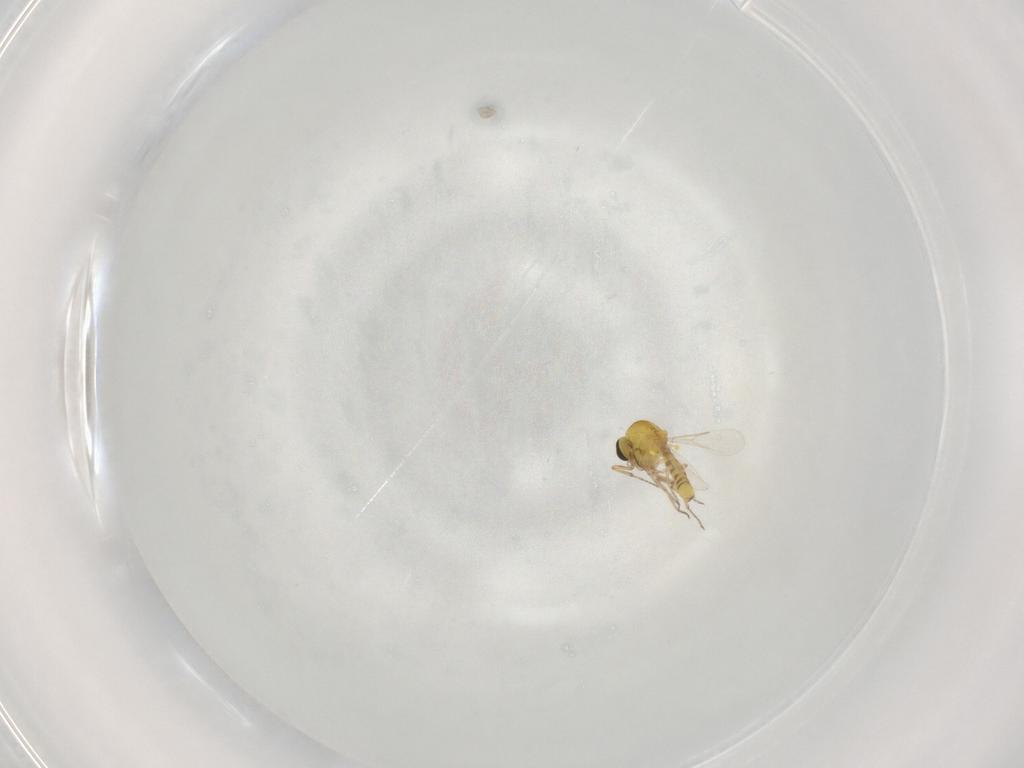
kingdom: Animalia
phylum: Arthropoda
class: Insecta
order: Diptera
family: Ceratopogonidae
